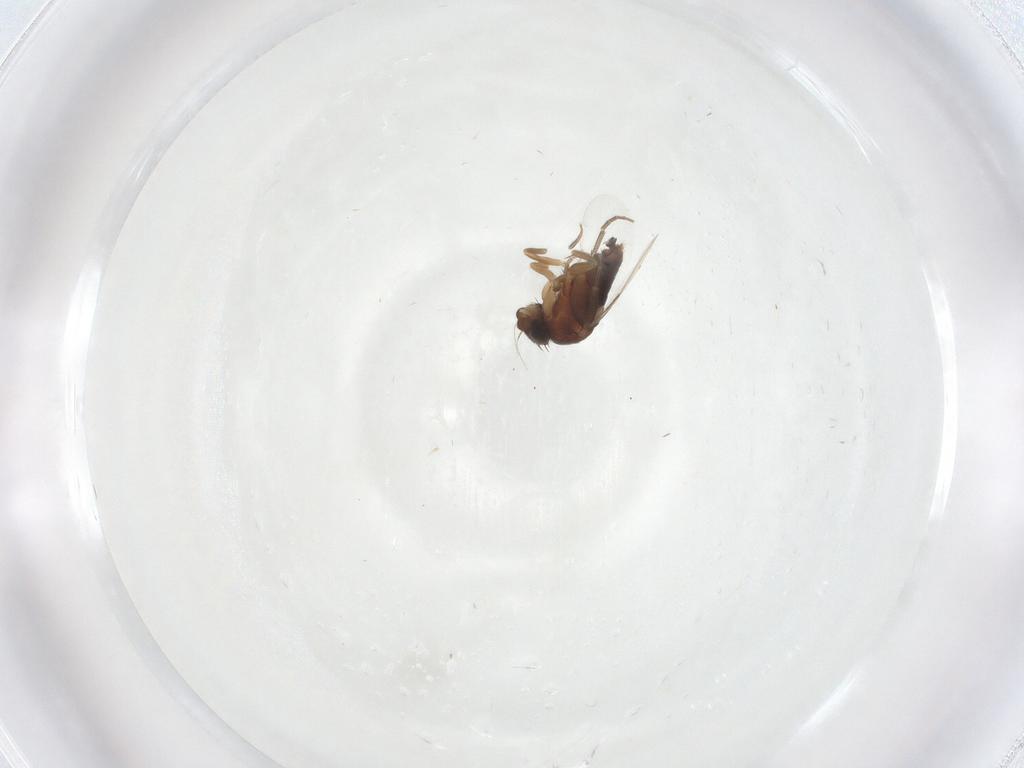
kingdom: Animalia
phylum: Arthropoda
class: Insecta
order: Diptera
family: Phoridae
